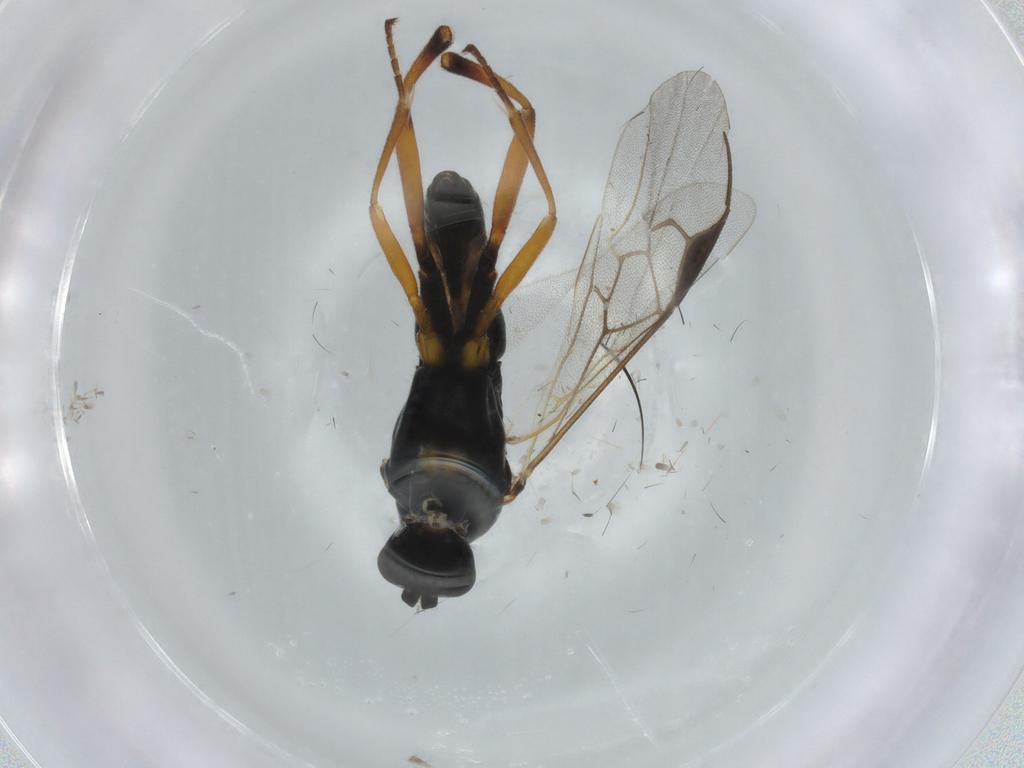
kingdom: Animalia
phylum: Arthropoda
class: Insecta
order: Hymenoptera
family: Braconidae
